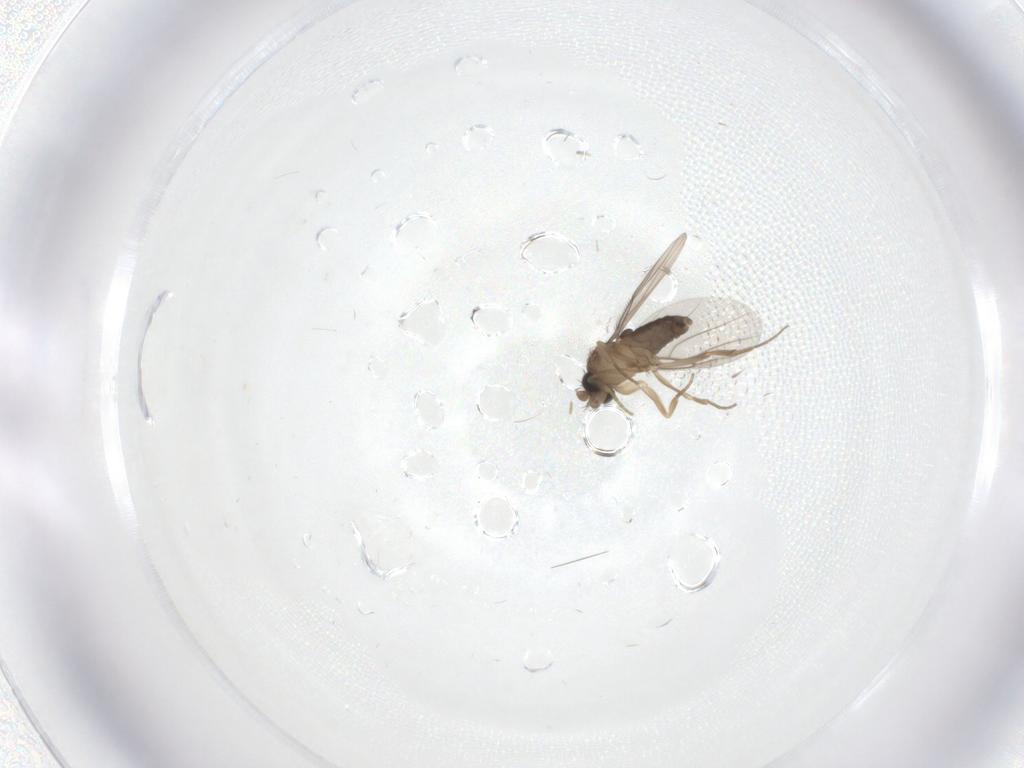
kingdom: Animalia
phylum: Arthropoda
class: Insecta
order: Diptera
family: Phoridae
